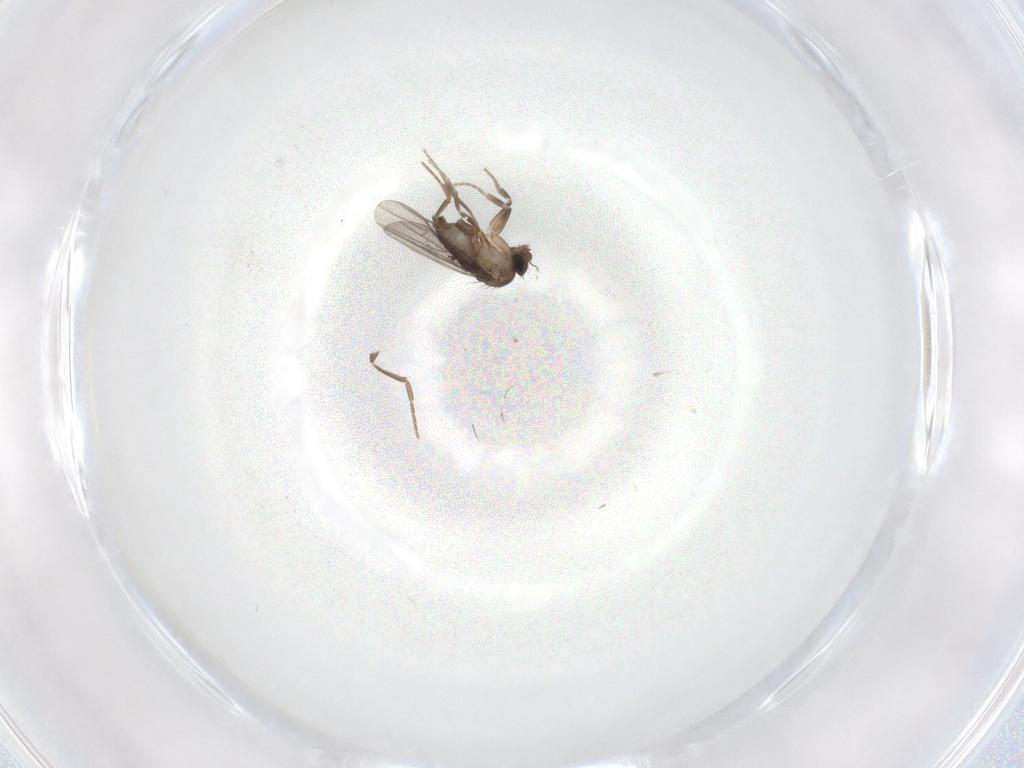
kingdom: Animalia
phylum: Arthropoda
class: Insecta
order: Diptera
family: Phoridae
